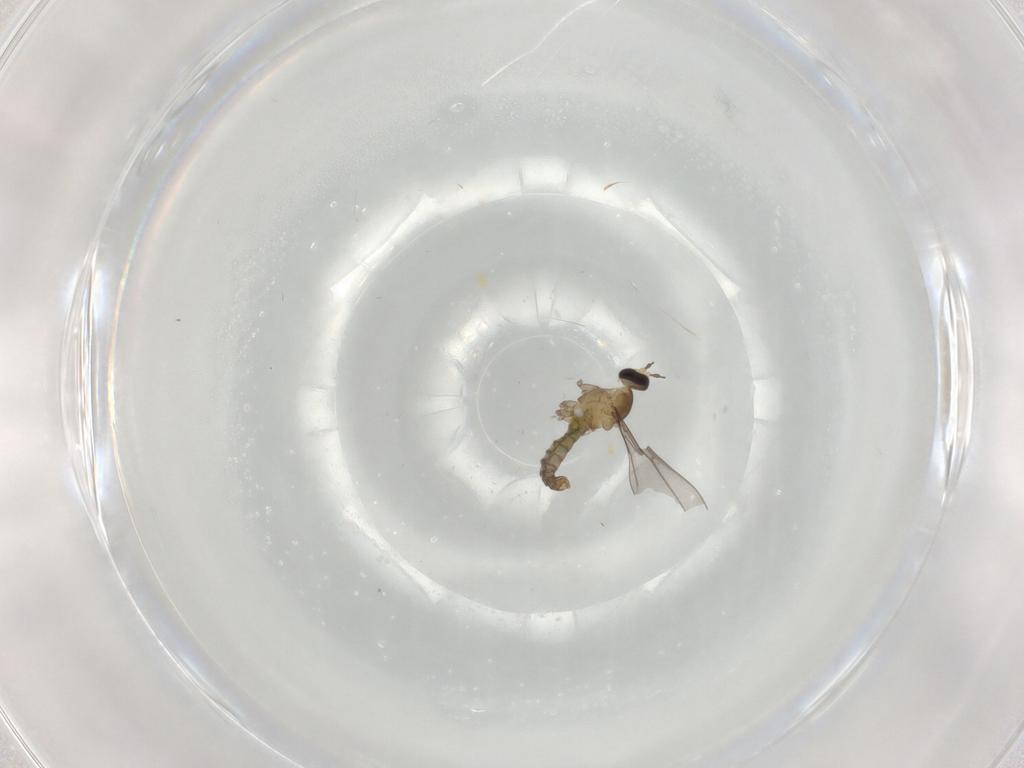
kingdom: Animalia
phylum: Arthropoda
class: Insecta
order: Diptera
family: Cecidomyiidae
